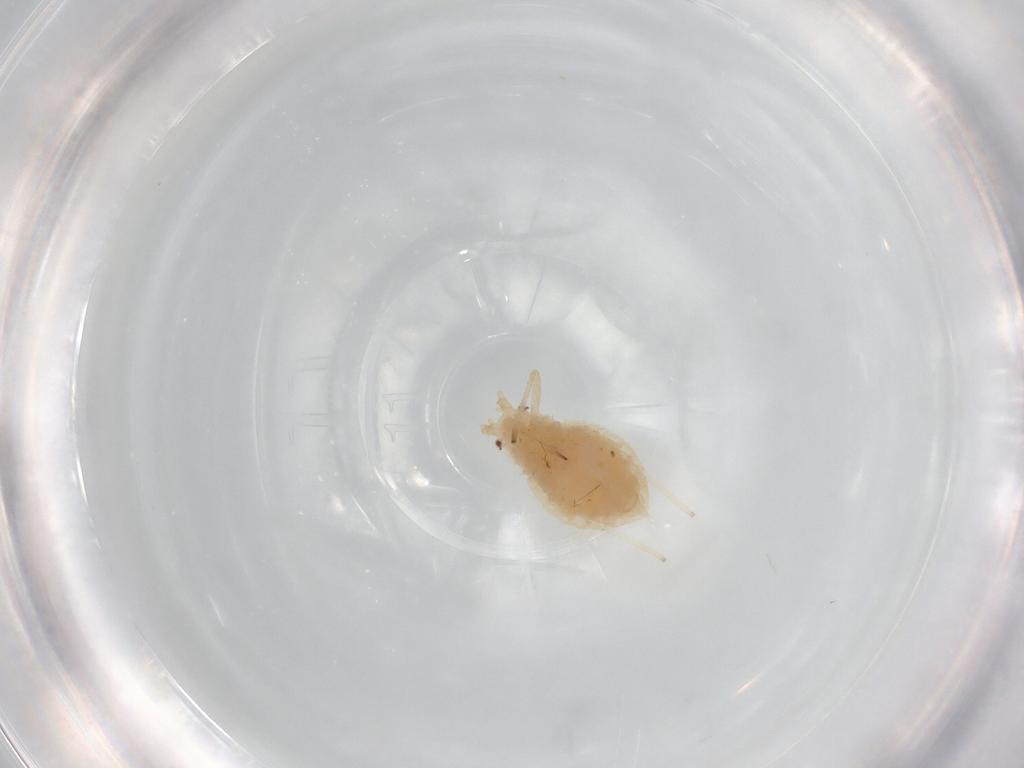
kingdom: Animalia
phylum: Arthropoda
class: Insecta
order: Hemiptera
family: Aphididae
